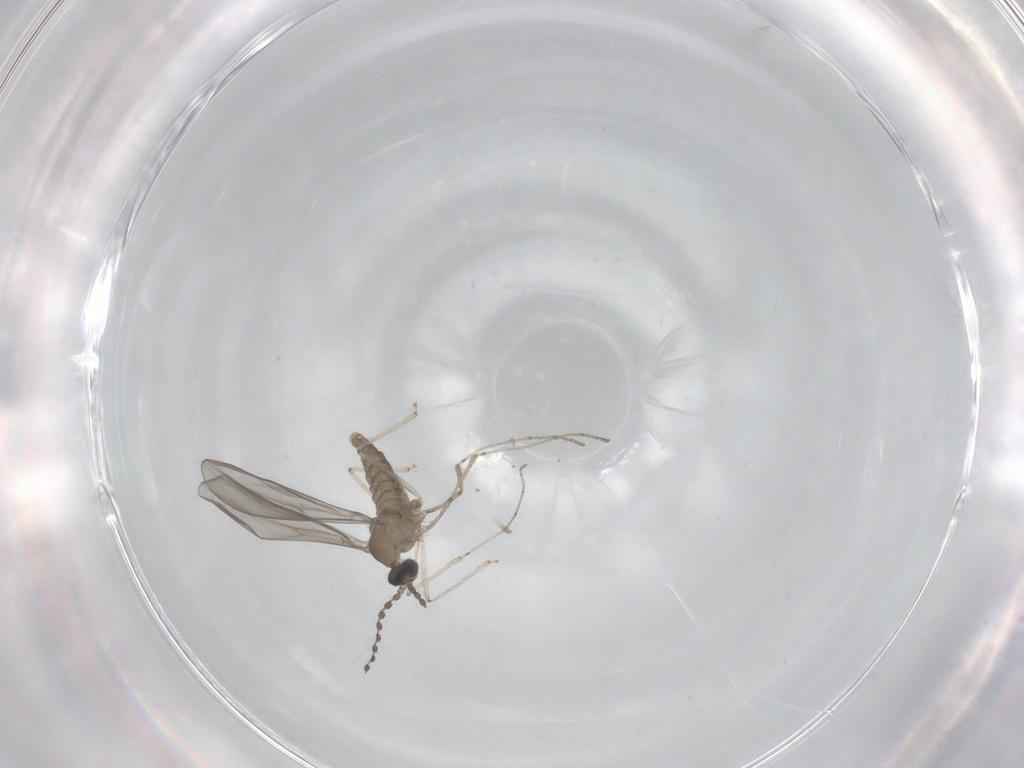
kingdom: Animalia
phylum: Arthropoda
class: Insecta
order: Diptera
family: Cecidomyiidae
